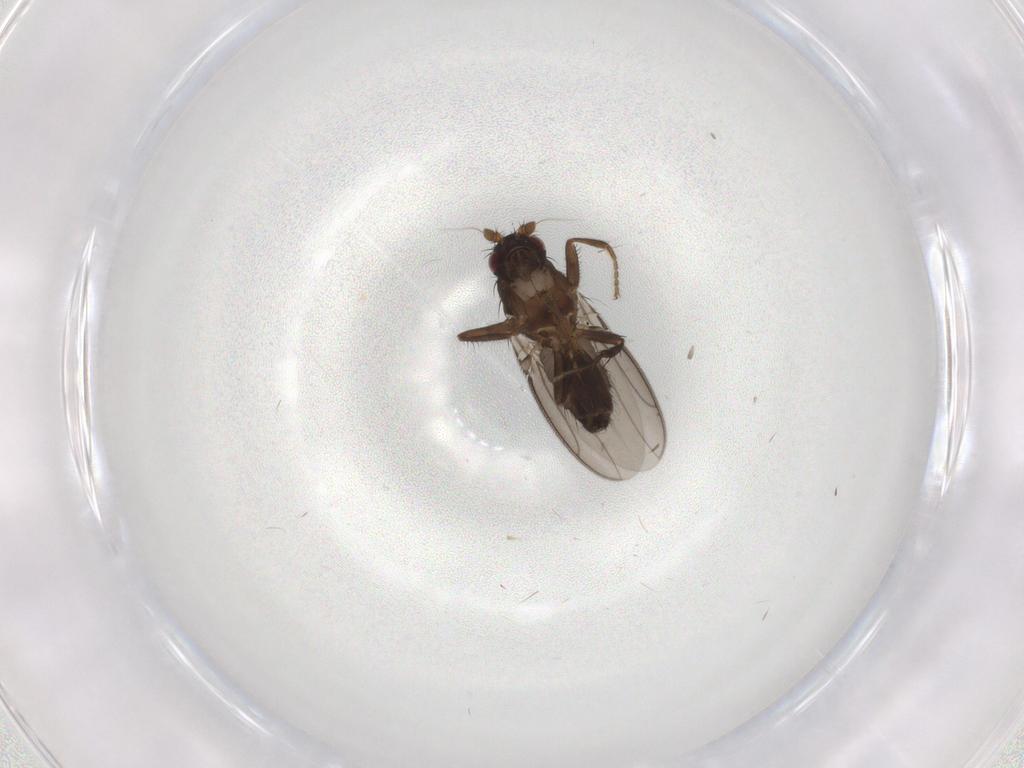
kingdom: Animalia
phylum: Arthropoda
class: Insecta
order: Diptera
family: Sphaeroceridae
